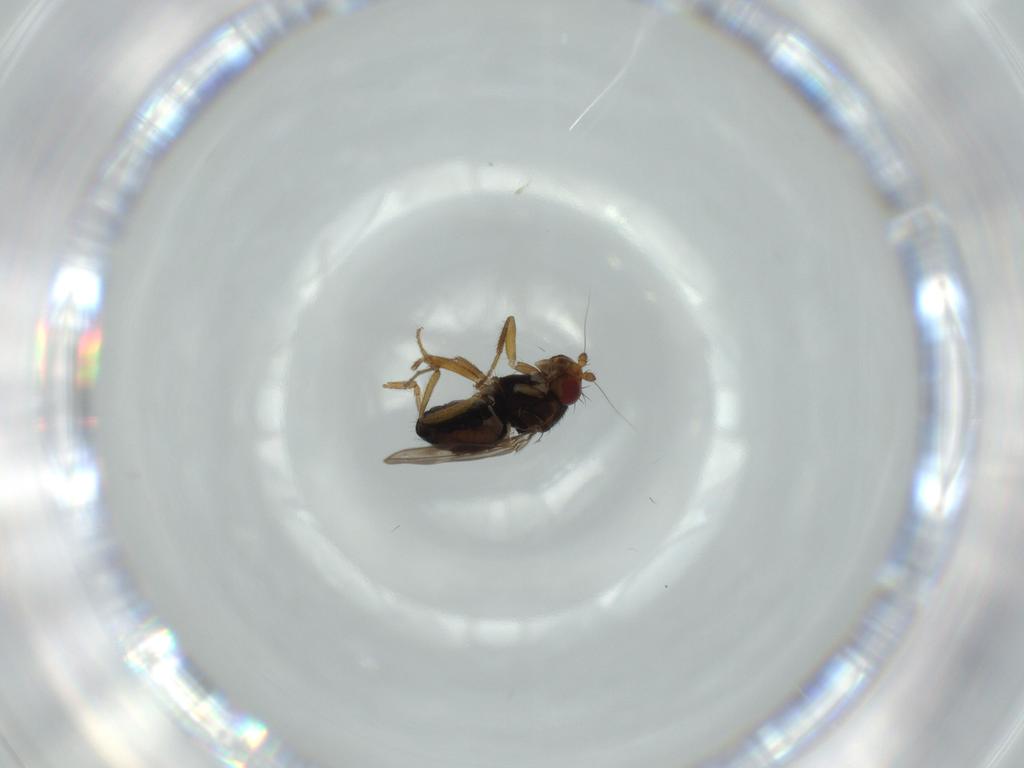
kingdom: Animalia
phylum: Arthropoda
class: Insecta
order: Diptera
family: Sphaeroceridae
